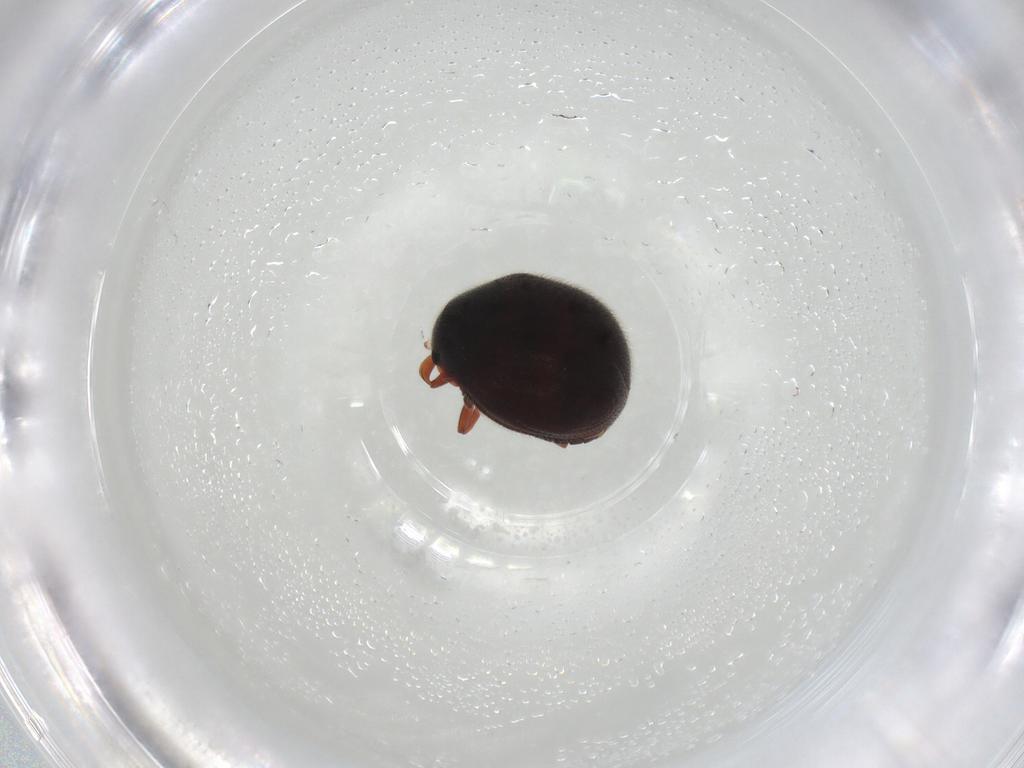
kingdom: Animalia
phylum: Arthropoda
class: Insecta
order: Coleoptera
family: Sphindidae
